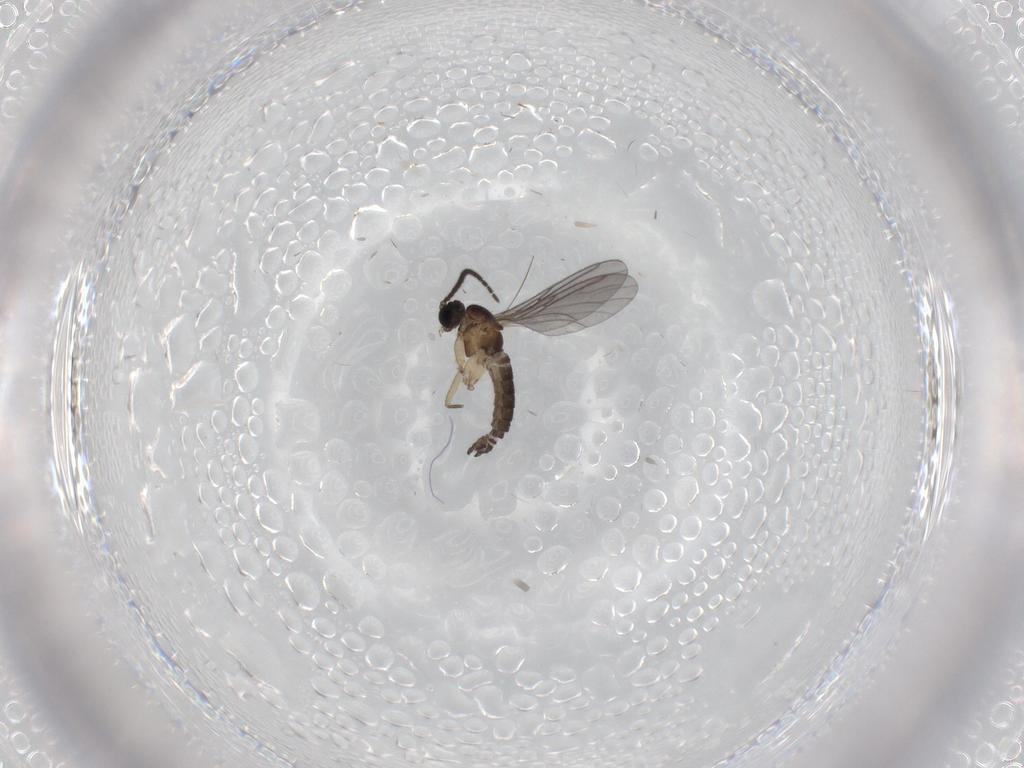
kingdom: Animalia
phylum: Arthropoda
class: Insecta
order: Diptera
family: Sciaridae
